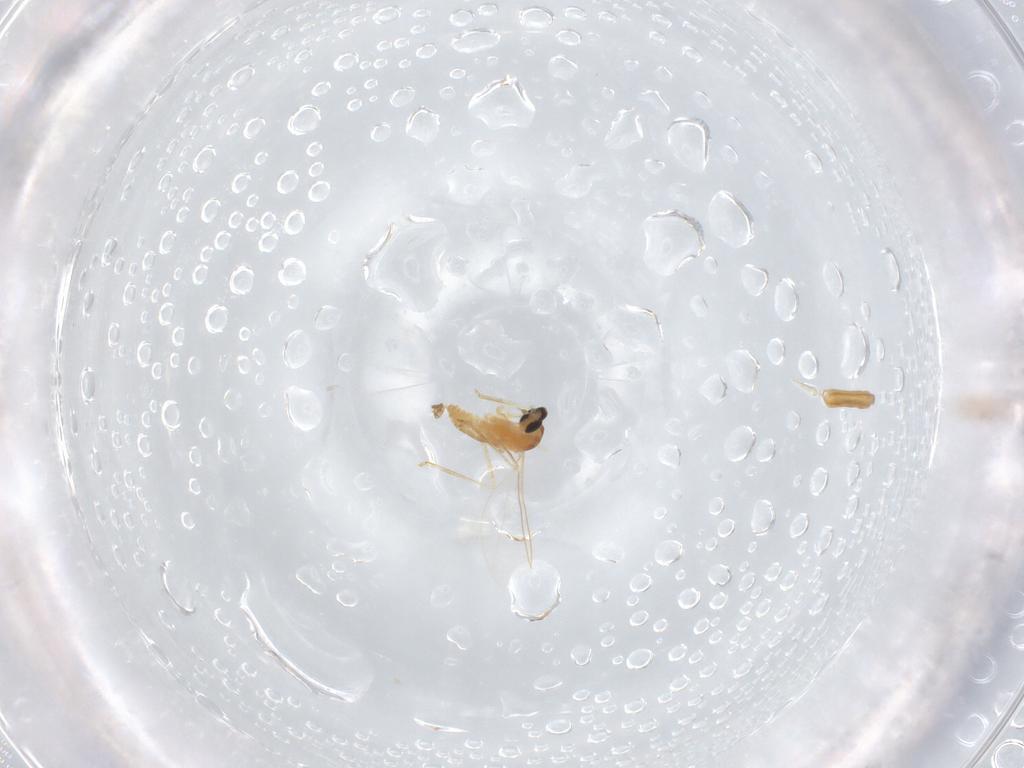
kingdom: Animalia
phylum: Arthropoda
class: Insecta
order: Diptera
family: Cecidomyiidae
